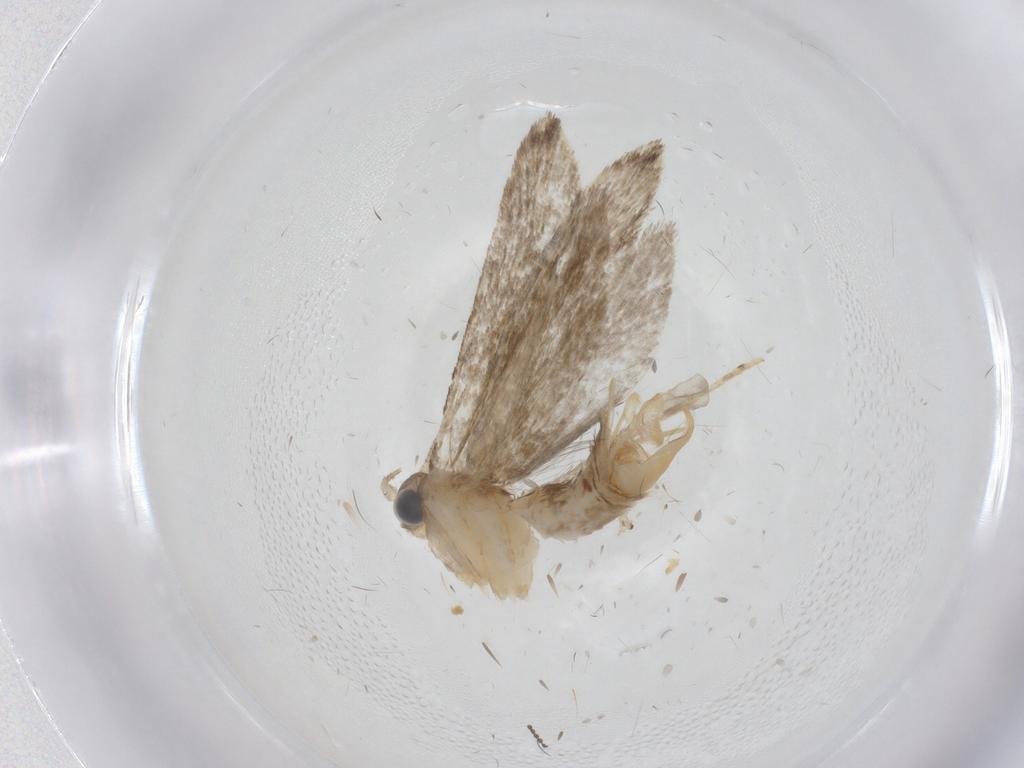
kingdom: Animalia
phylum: Arthropoda
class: Insecta
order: Lepidoptera
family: Tineidae
